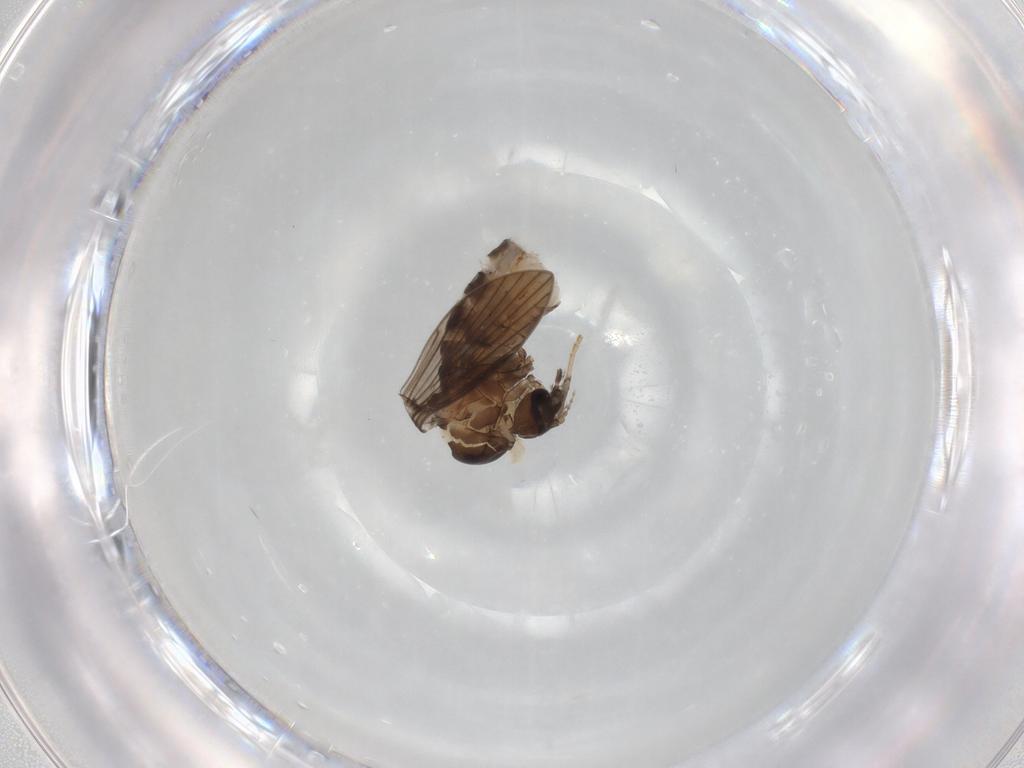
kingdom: Animalia
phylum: Arthropoda
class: Insecta
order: Diptera
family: Psychodidae
